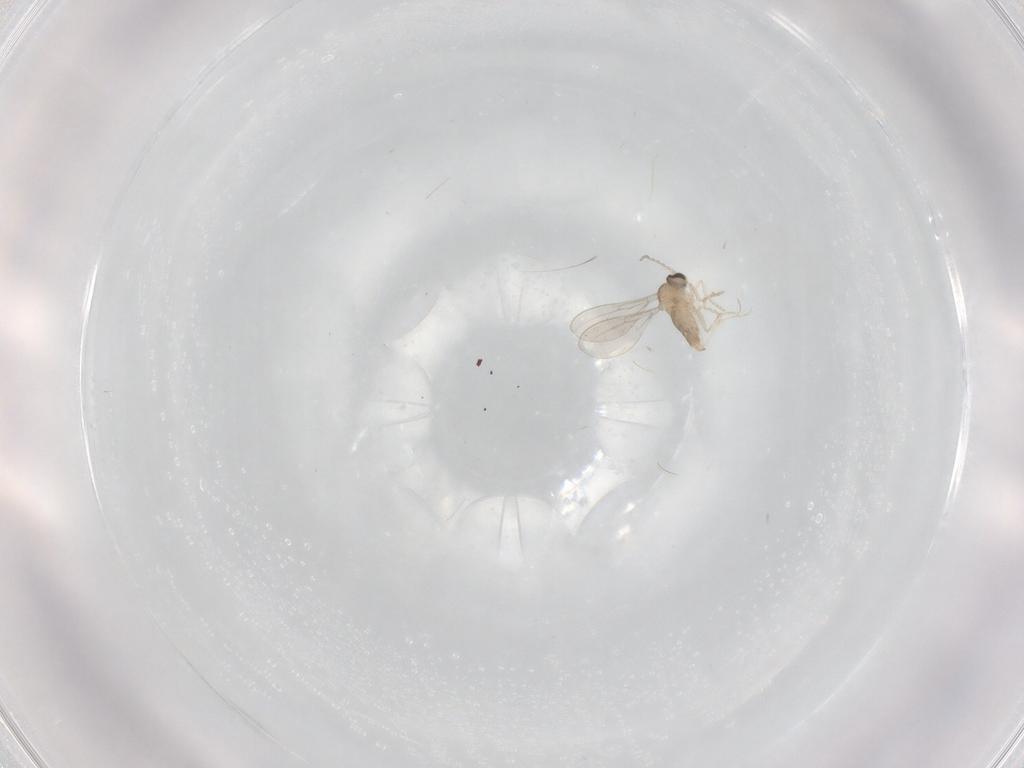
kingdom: Animalia
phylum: Arthropoda
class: Insecta
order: Diptera
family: Cecidomyiidae
